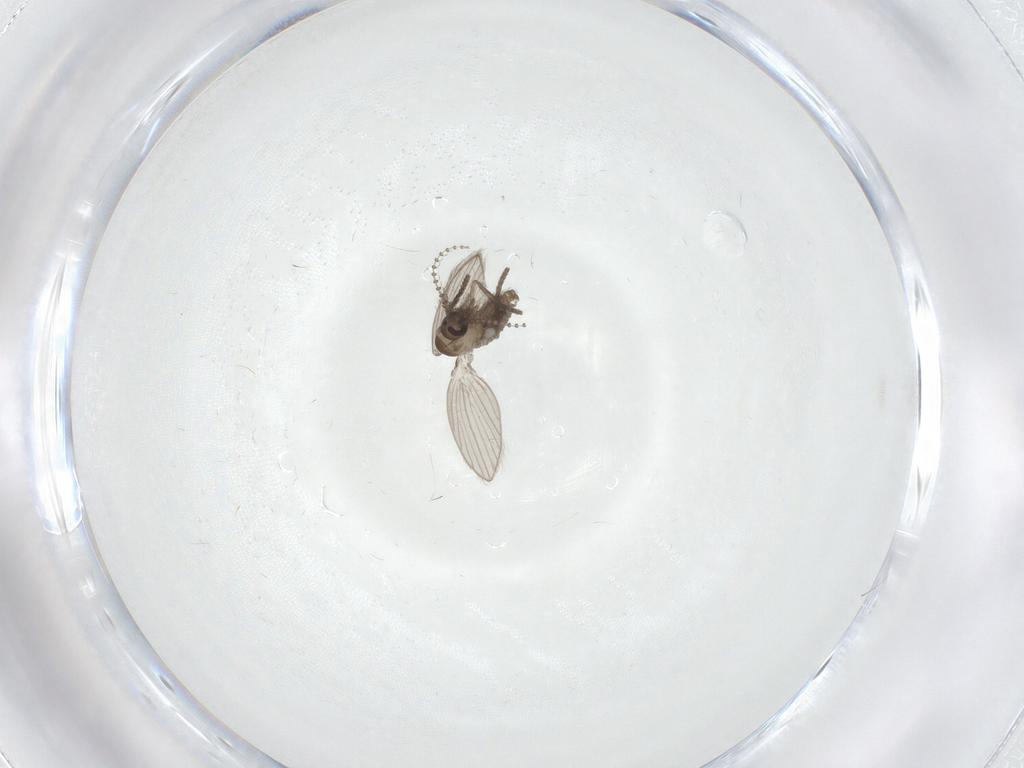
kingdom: Animalia
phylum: Arthropoda
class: Insecta
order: Diptera
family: Psychodidae
